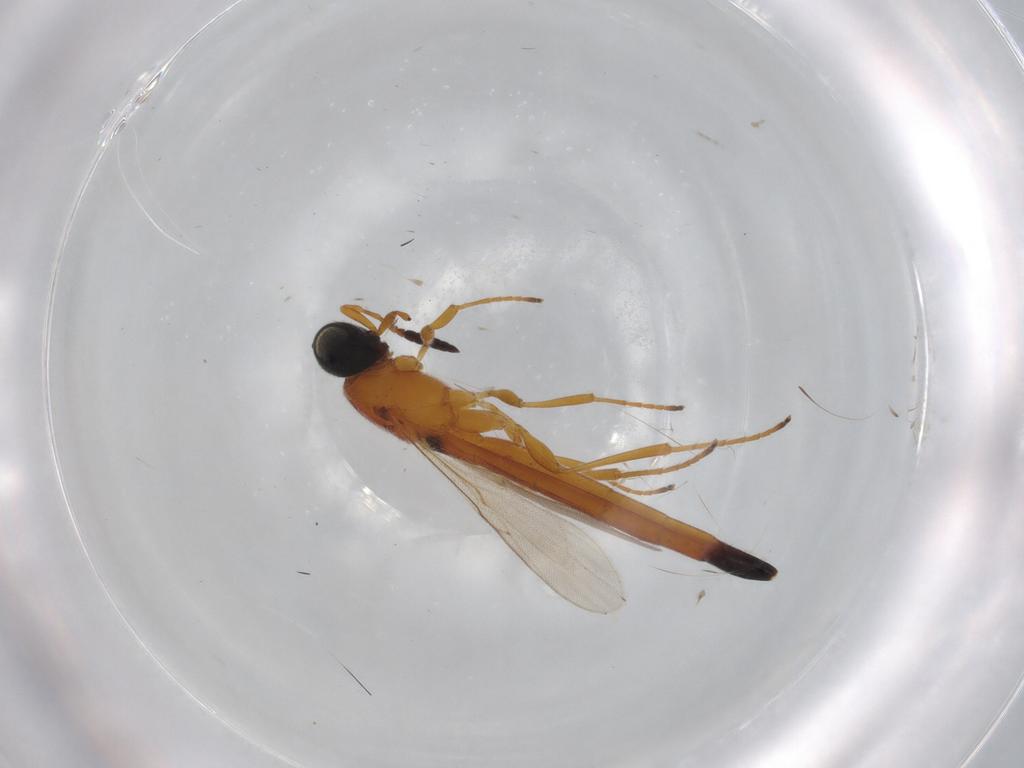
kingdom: Animalia
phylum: Arthropoda
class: Insecta
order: Hymenoptera
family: Scelionidae
